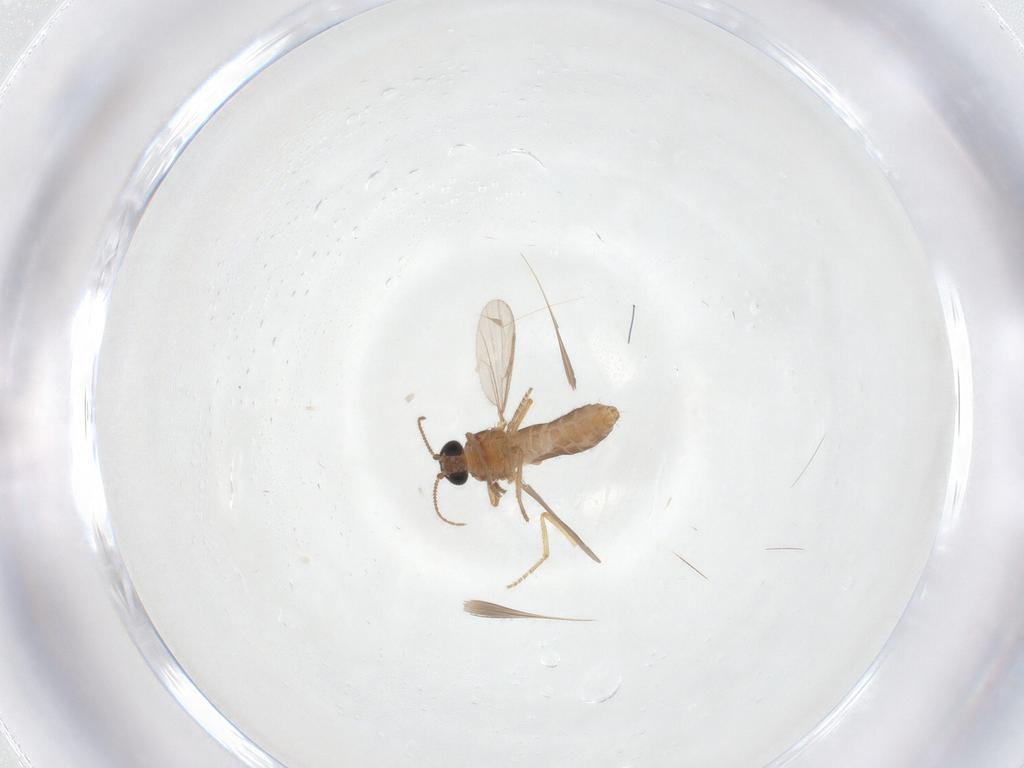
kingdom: Animalia
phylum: Arthropoda
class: Insecta
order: Diptera
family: Ceratopogonidae
